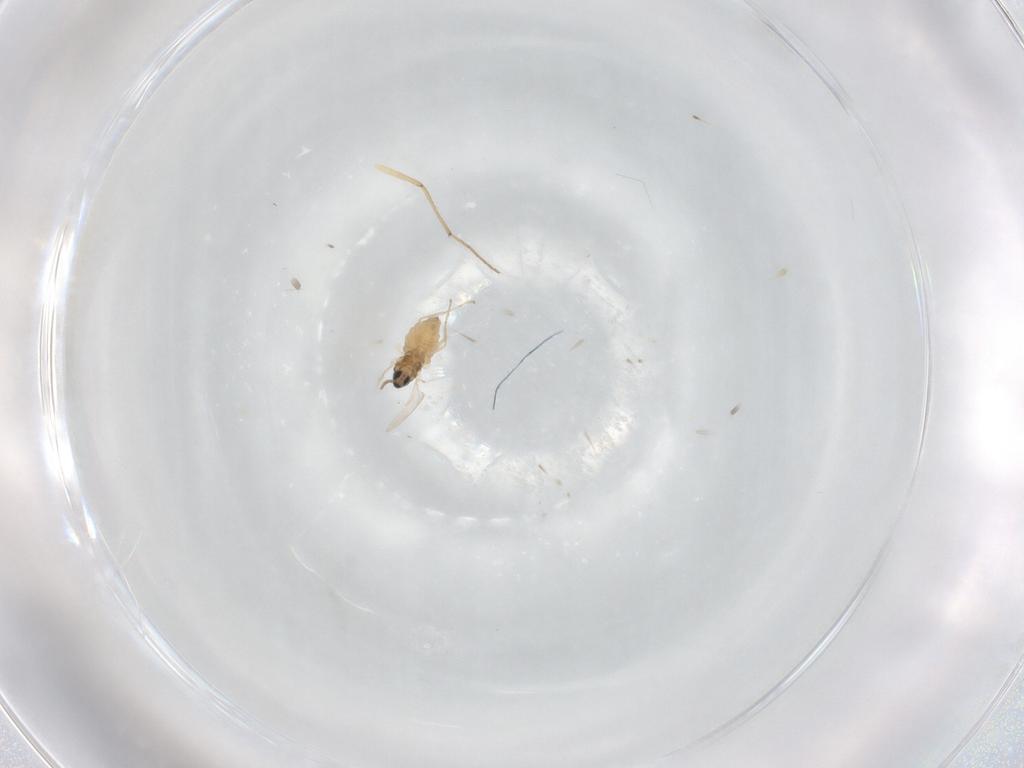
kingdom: Animalia
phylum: Arthropoda
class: Insecta
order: Diptera
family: Chironomidae
